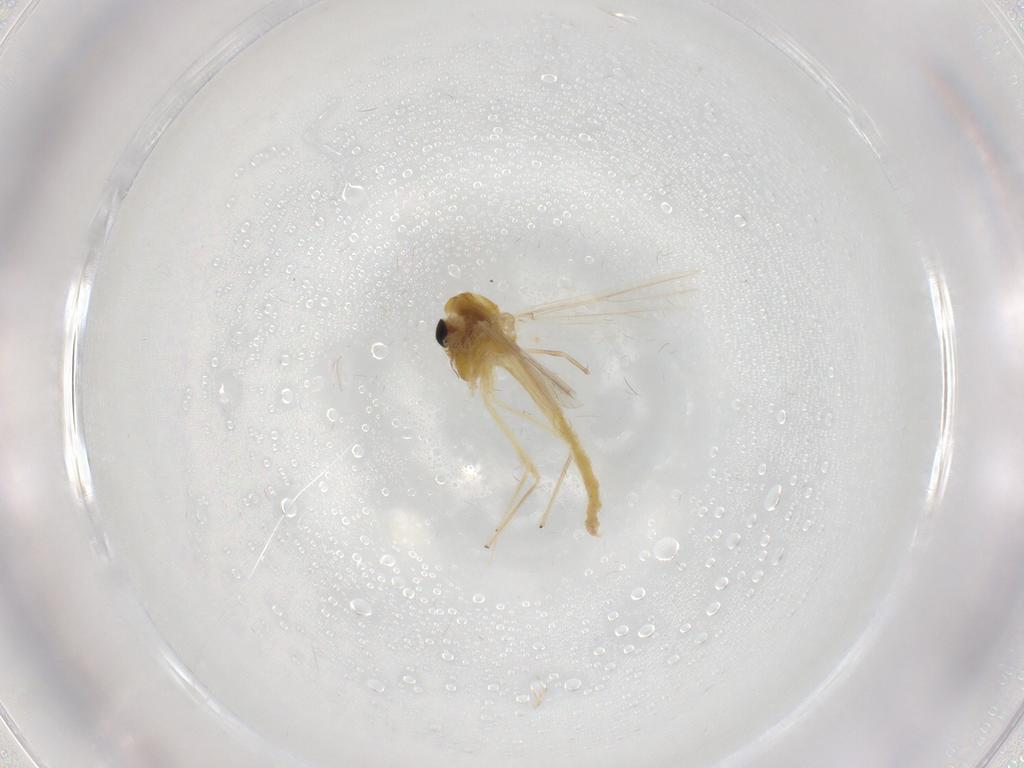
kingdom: Animalia
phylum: Arthropoda
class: Insecta
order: Diptera
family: Chironomidae
